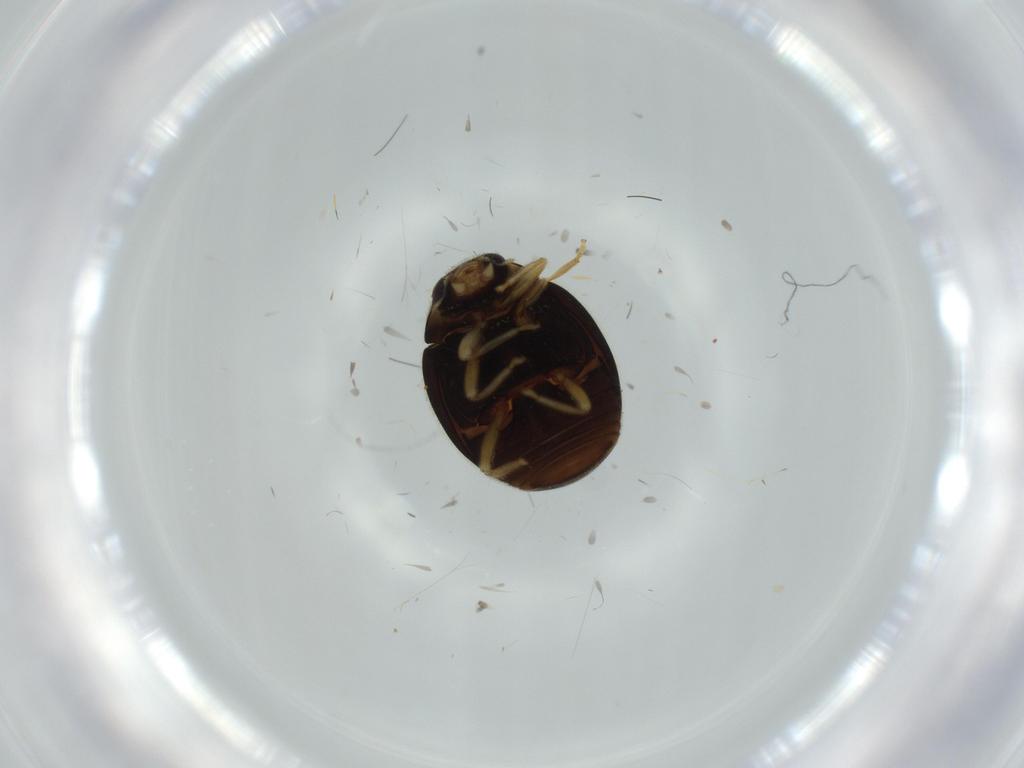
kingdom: Animalia
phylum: Arthropoda
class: Insecta
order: Coleoptera
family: Coccinellidae
